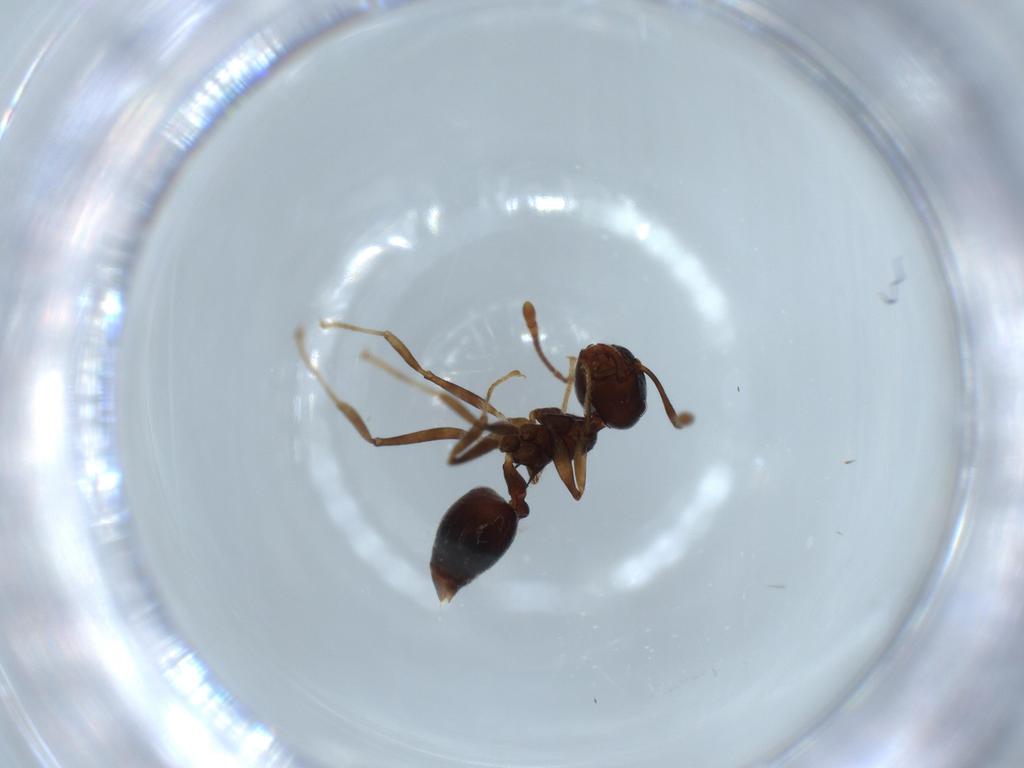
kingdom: Animalia
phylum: Arthropoda
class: Insecta
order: Hymenoptera
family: Formicidae
